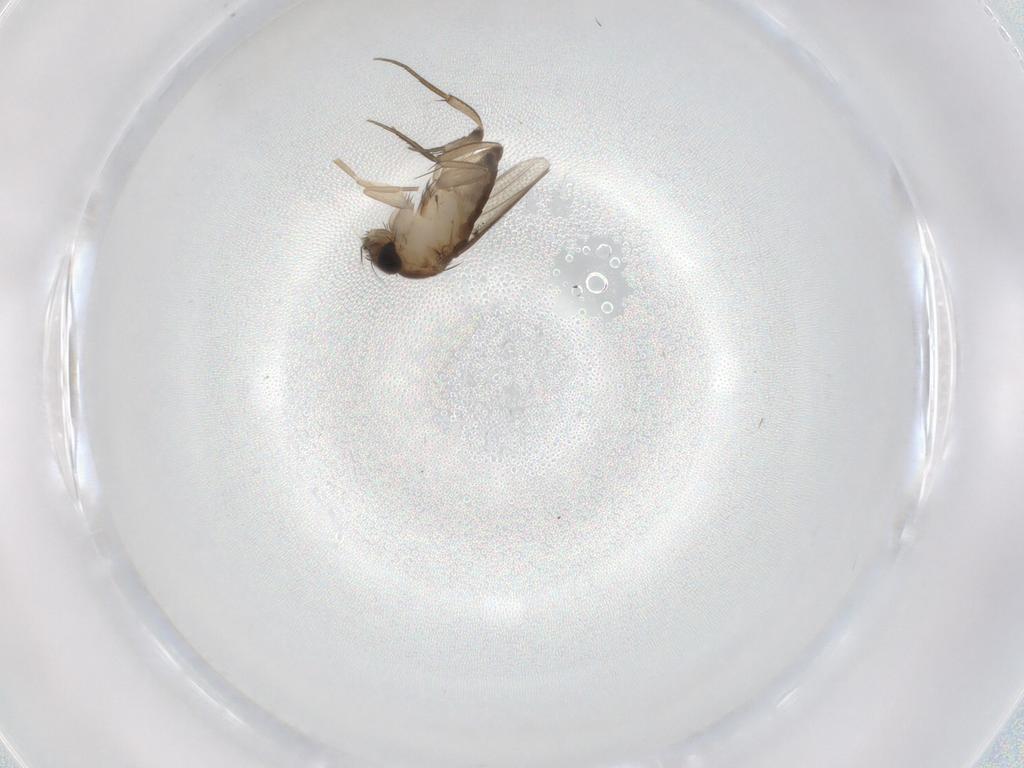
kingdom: Animalia
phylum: Arthropoda
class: Insecta
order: Diptera
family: Phoridae
